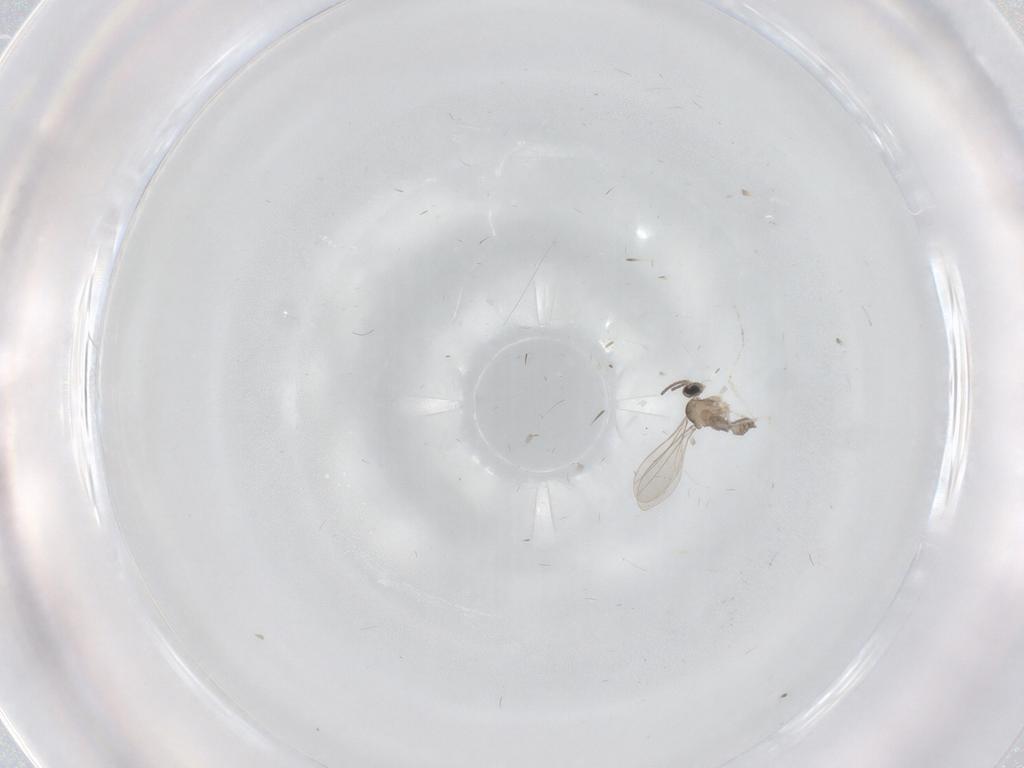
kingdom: Animalia
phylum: Arthropoda
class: Insecta
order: Diptera
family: Cecidomyiidae
